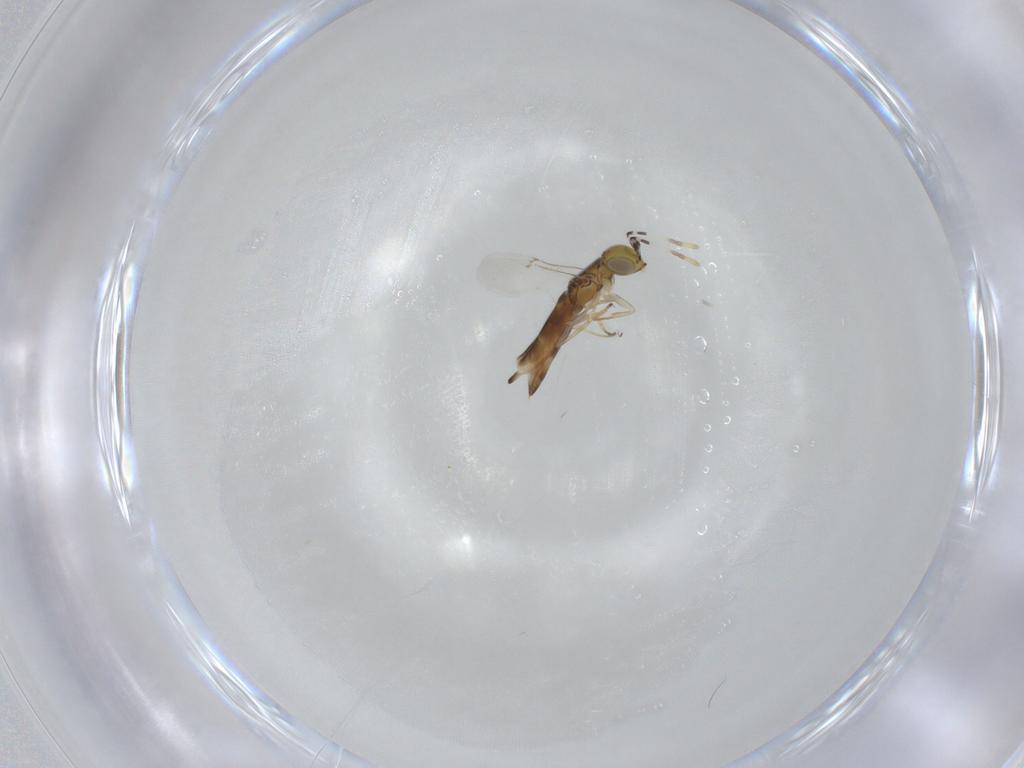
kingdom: Animalia
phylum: Arthropoda
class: Insecta
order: Hymenoptera
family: Encyrtidae
